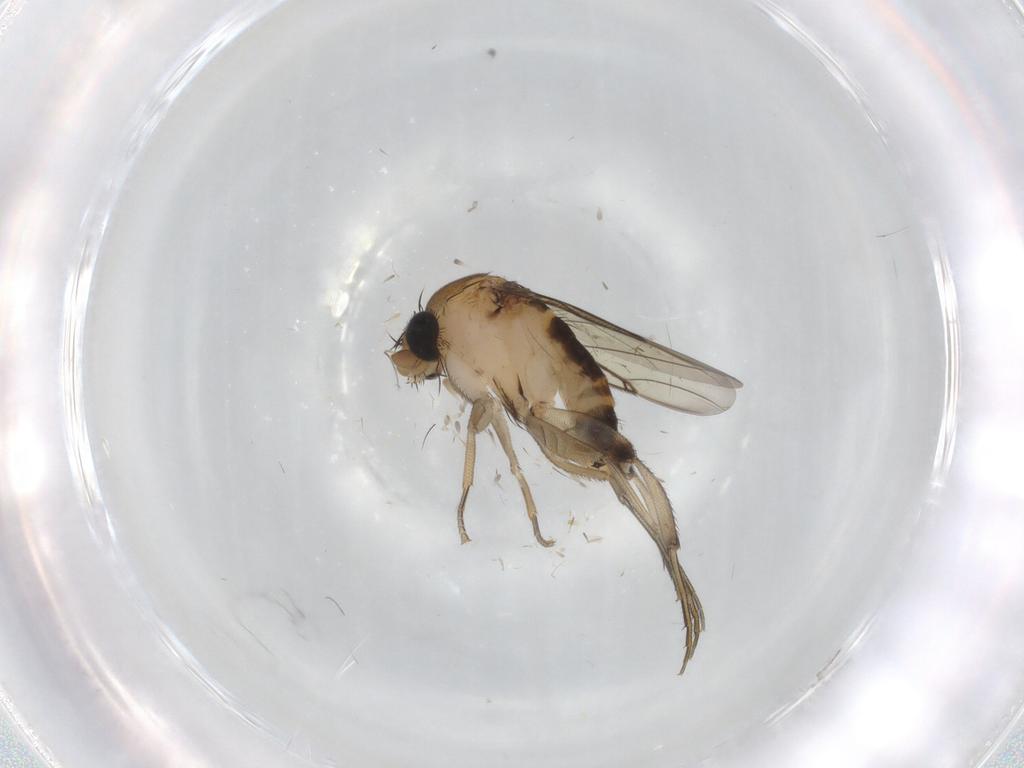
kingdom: Animalia
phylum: Arthropoda
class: Insecta
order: Diptera
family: Phoridae
